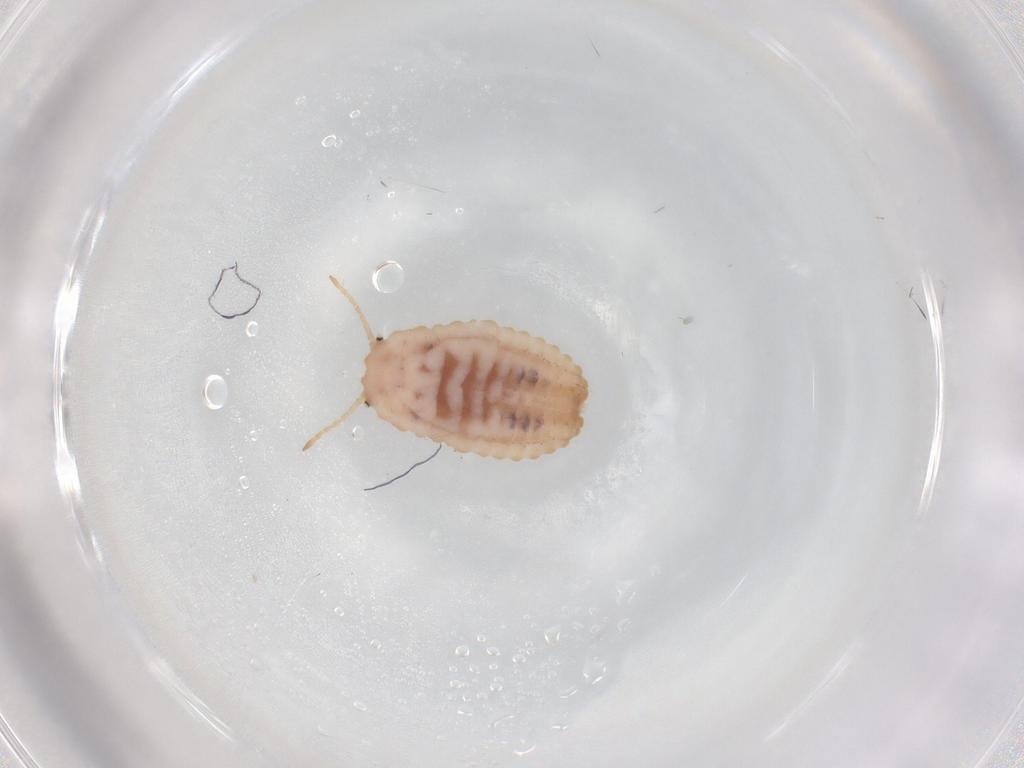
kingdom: Animalia
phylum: Arthropoda
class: Insecta
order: Hemiptera
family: Coccoidea_incertae_sedis
